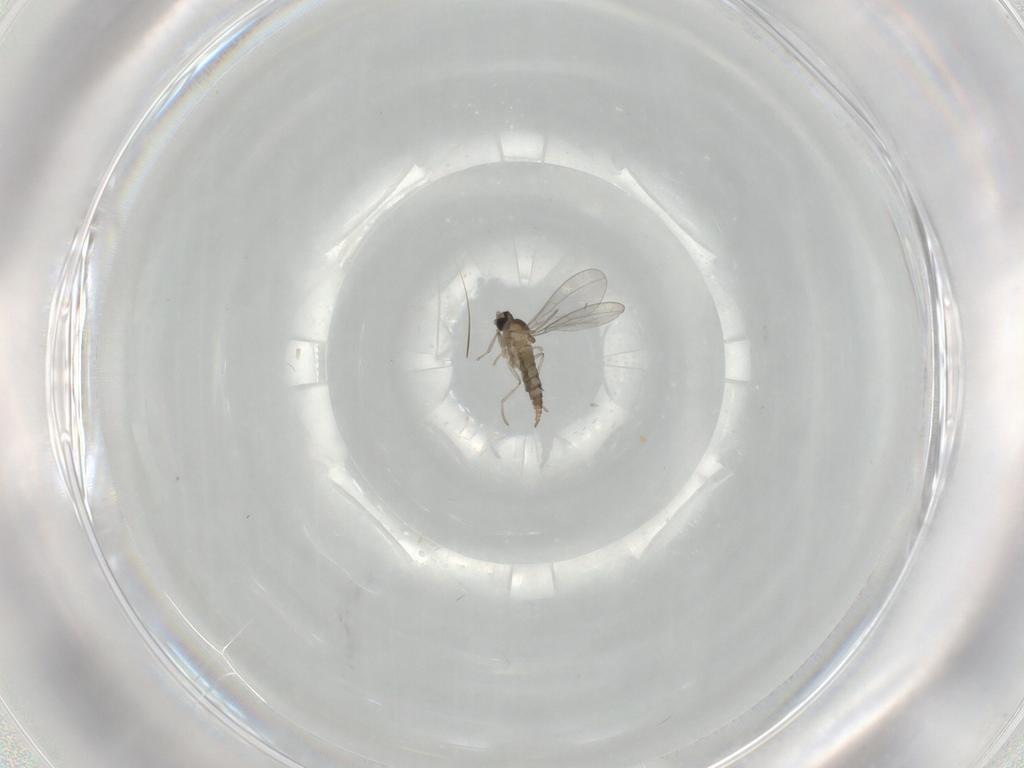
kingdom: Animalia
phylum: Arthropoda
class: Insecta
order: Diptera
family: Cecidomyiidae
